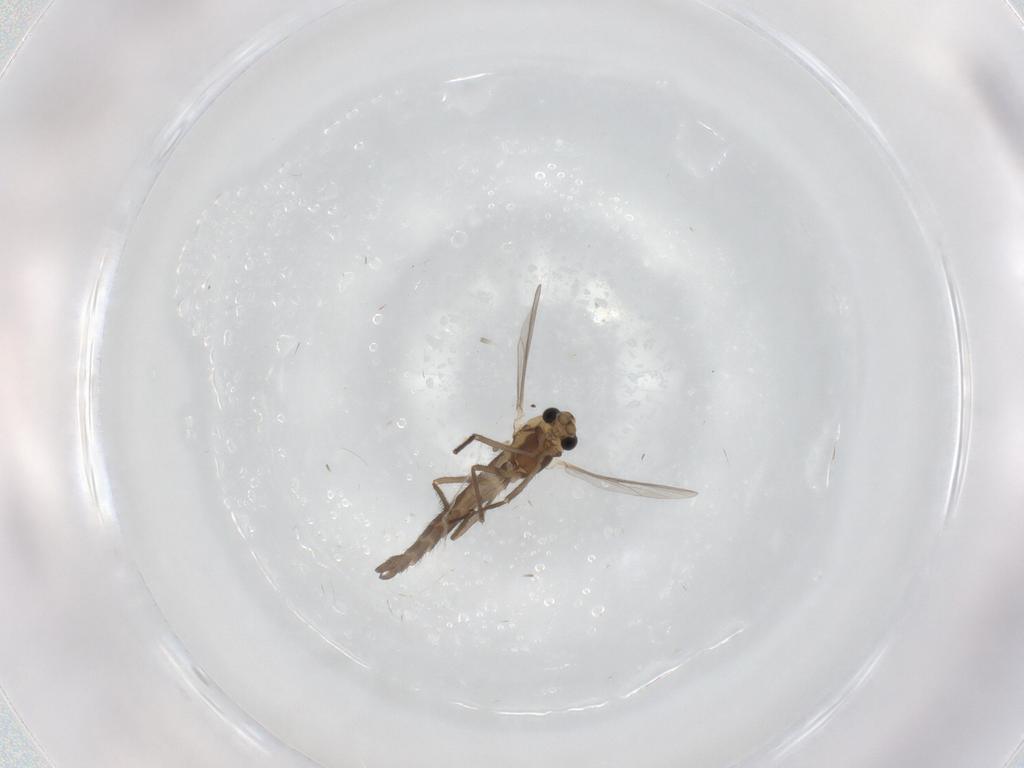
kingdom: Animalia
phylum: Arthropoda
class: Insecta
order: Diptera
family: Chironomidae
